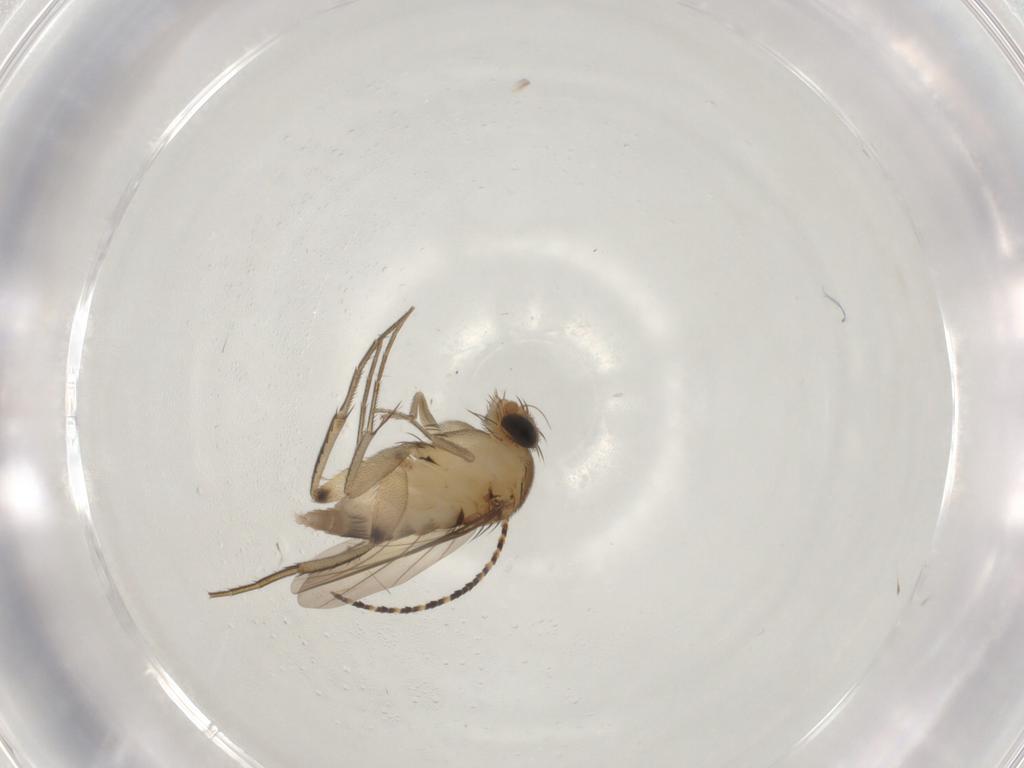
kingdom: Animalia
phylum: Arthropoda
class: Insecta
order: Diptera
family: Phoridae
